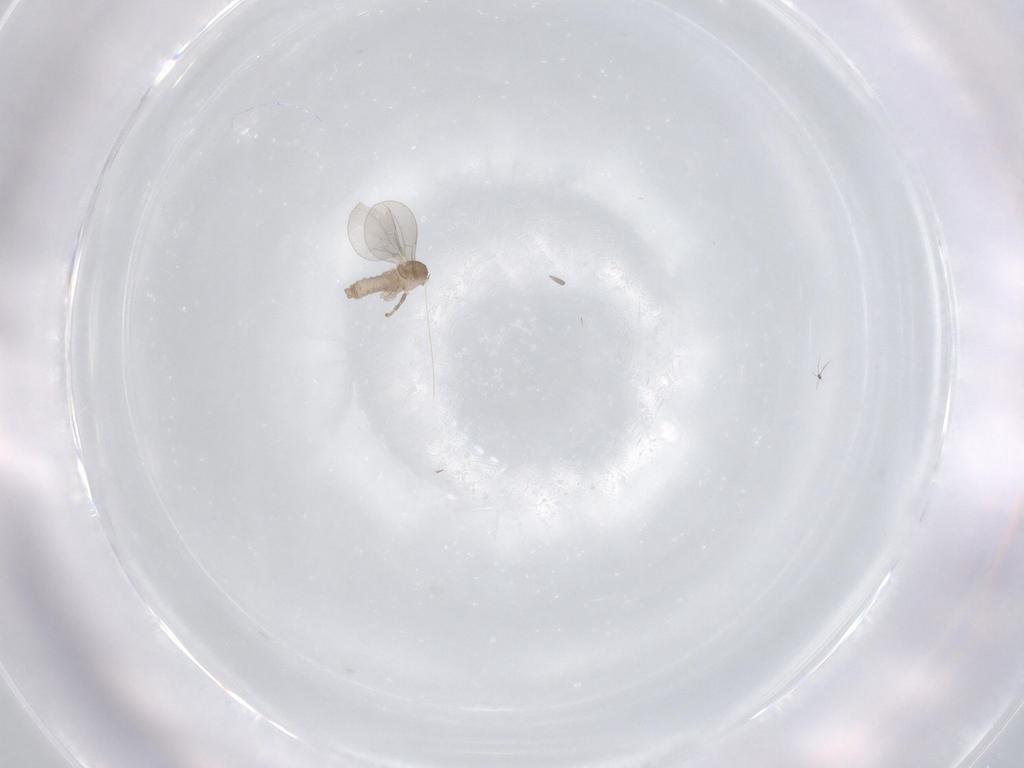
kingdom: Animalia
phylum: Arthropoda
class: Insecta
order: Diptera
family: Cecidomyiidae
